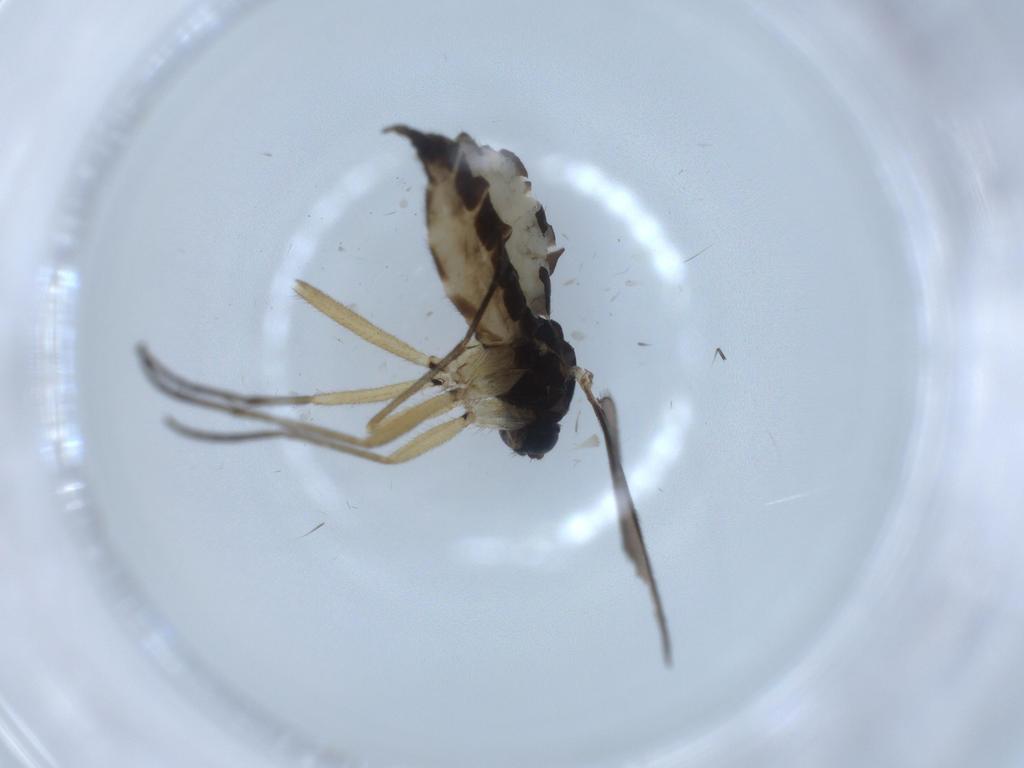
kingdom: Animalia
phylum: Arthropoda
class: Insecta
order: Diptera
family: Sciaridae
